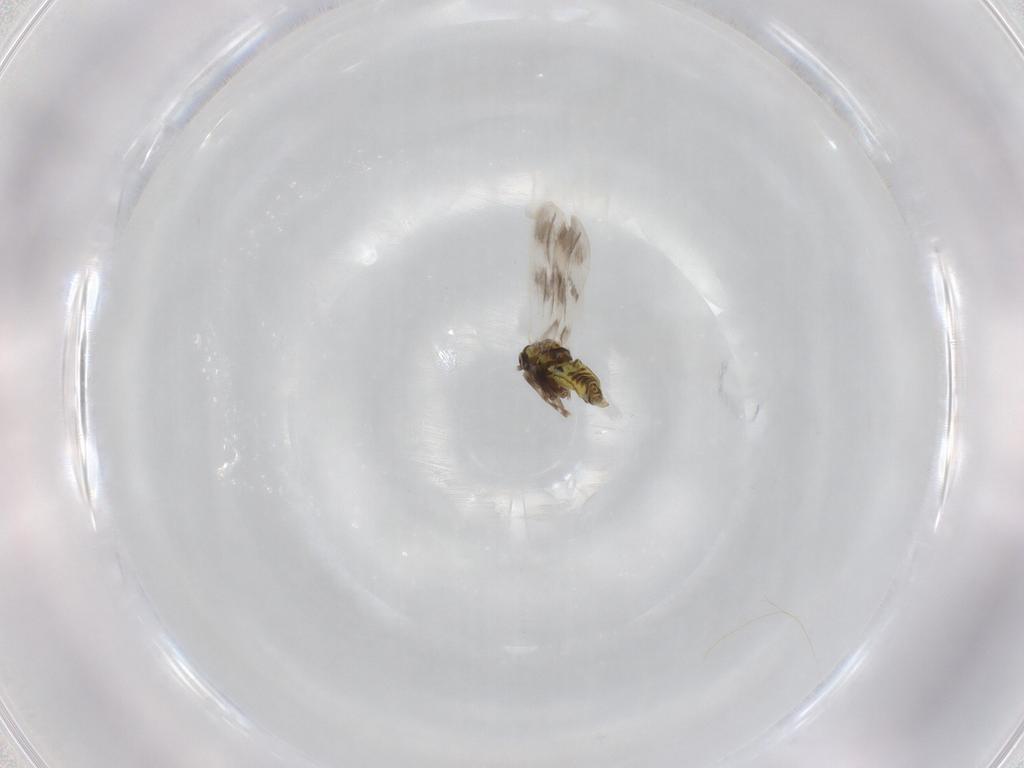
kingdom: Animalia
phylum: Arthropoda
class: Insecta
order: Hemiptera
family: Aleyrodidae
